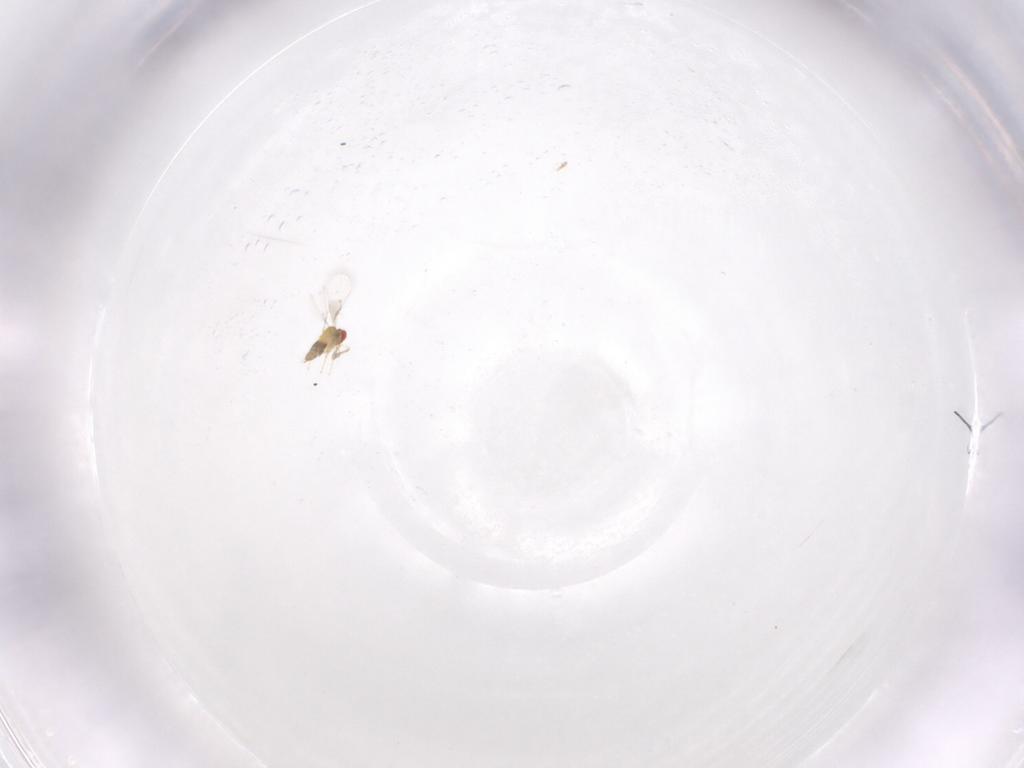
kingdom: Animalia
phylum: Arthropoda
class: Insecta
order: Hymenoptera
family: Trichogrammatidae
